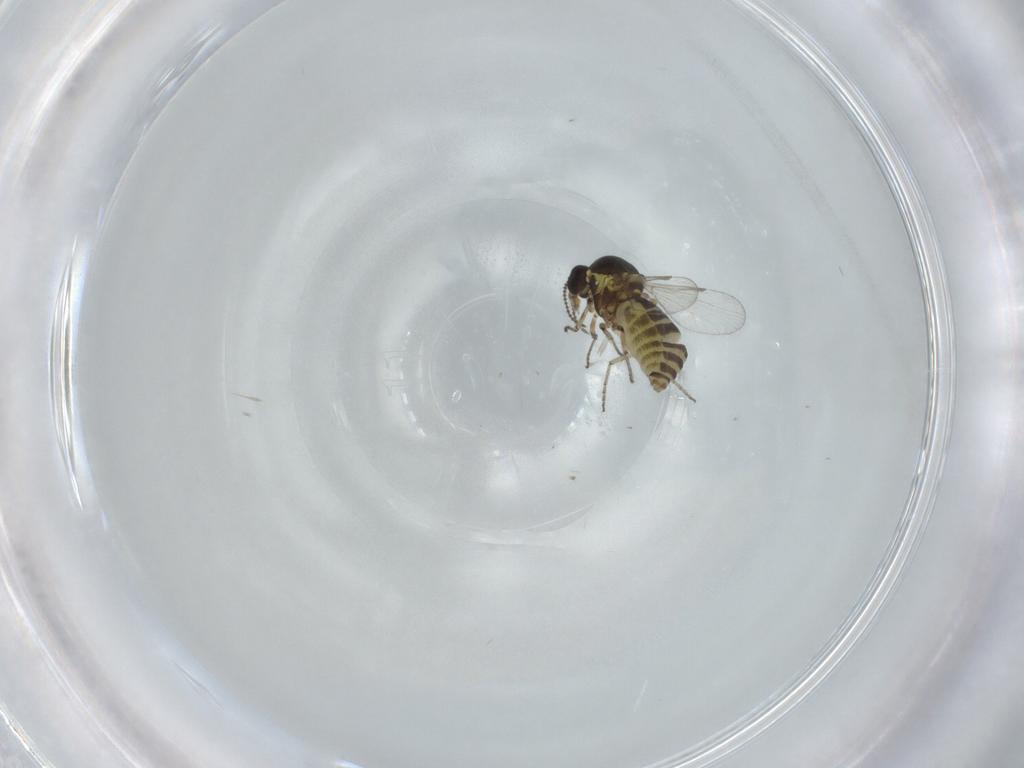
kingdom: Animalia
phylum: Arthropoda
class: Insecta
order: Diptera
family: Ceratopogonidae
